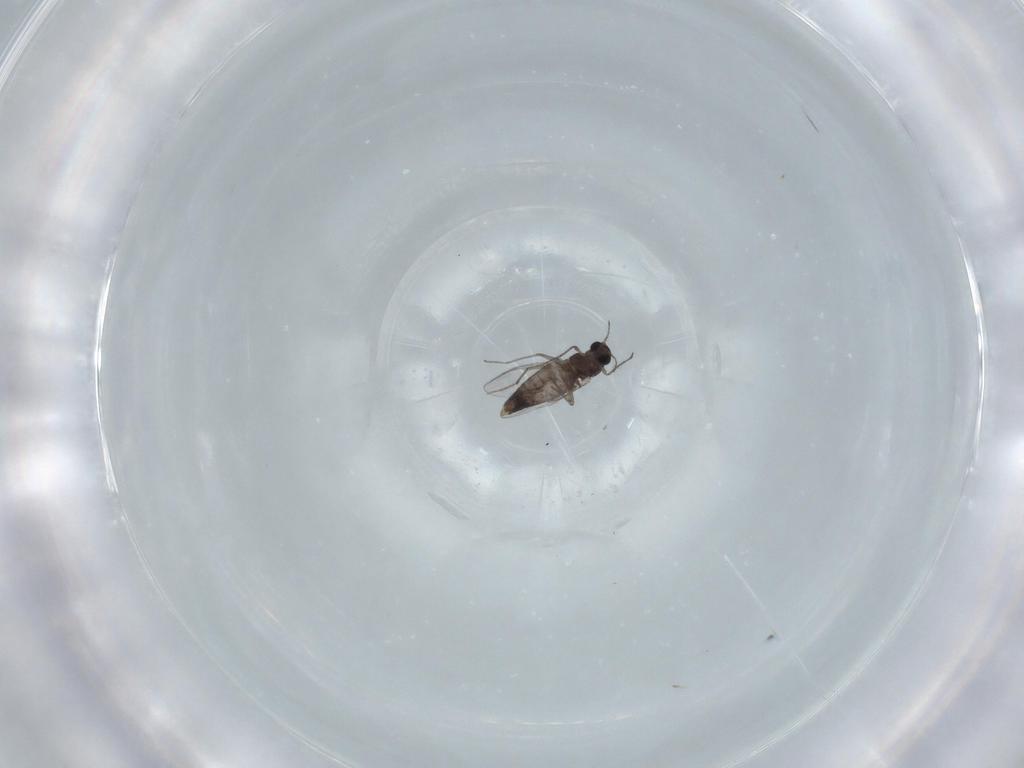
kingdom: Animalia
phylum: Arthropoda
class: Insecta
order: Diptera
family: Chironomidae
